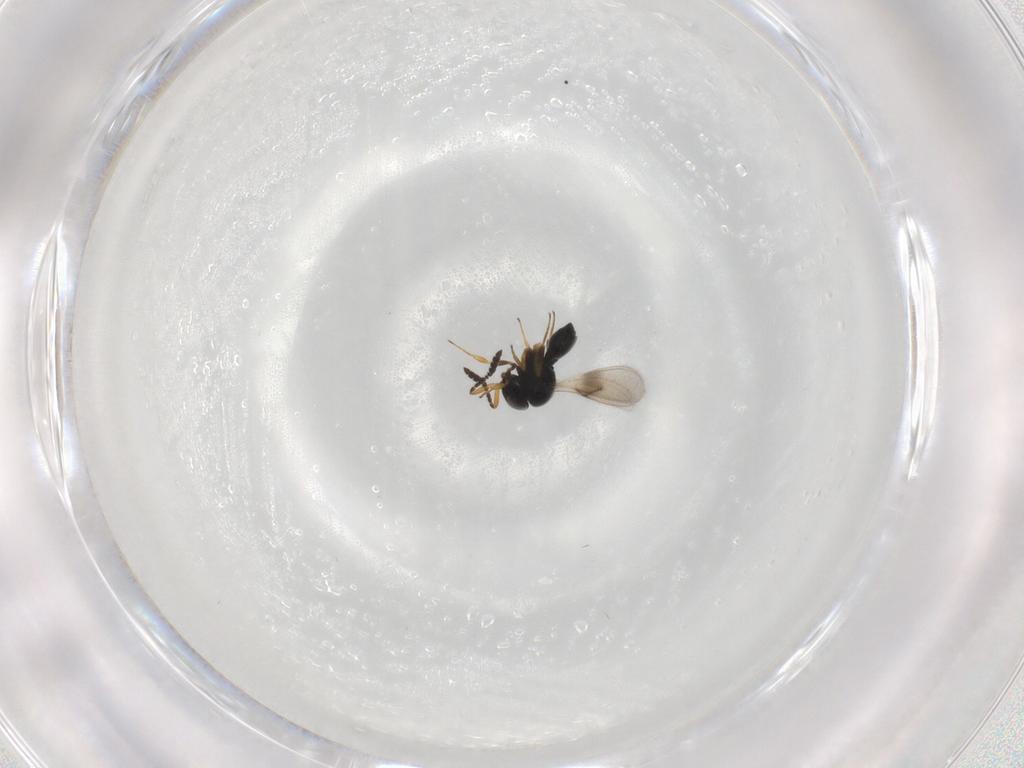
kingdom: Animalia
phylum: Arthropoda
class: Insecta
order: Hymenoptera
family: Scelionidae
